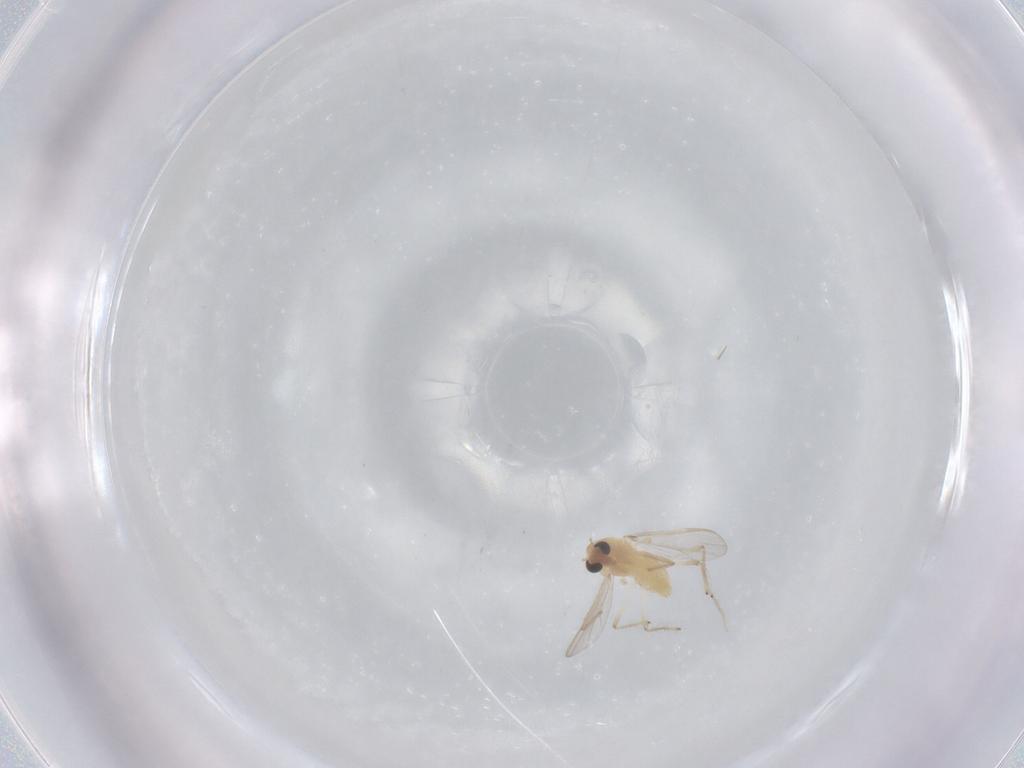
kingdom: Animalia
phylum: Arthropoda
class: Insecta
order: Diptera
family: Chironomidae
